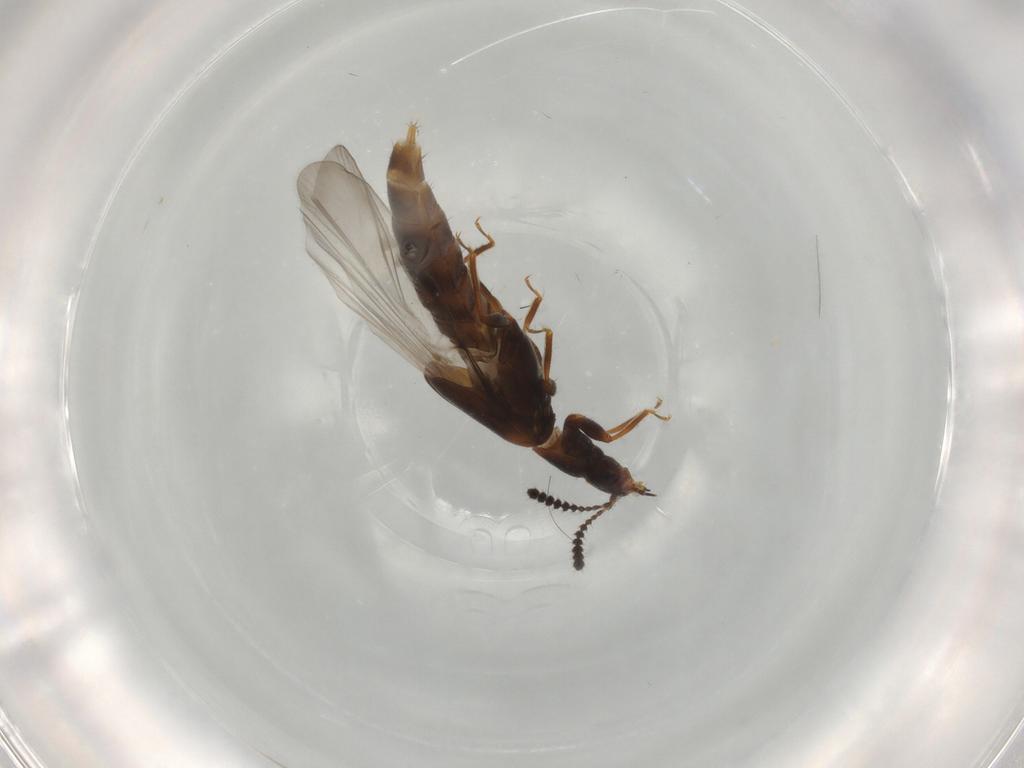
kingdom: Animalia
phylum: Arthropoda
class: Insecta
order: Coleoptera
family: Staphylinidae
